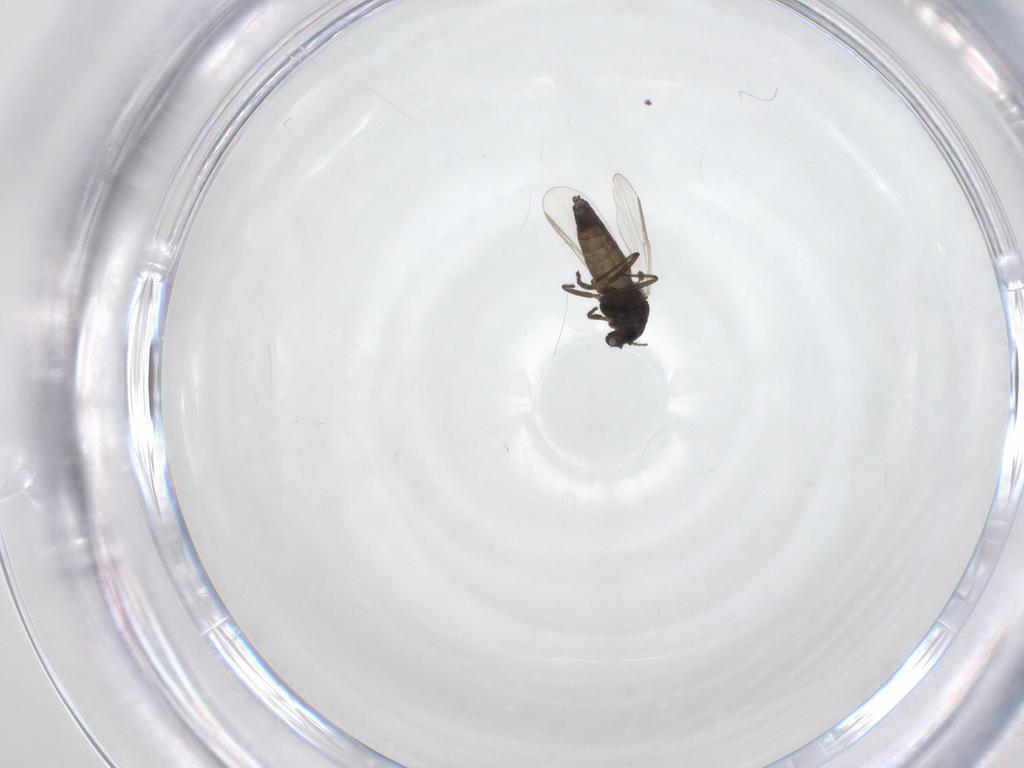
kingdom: Animalia
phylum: Arthropoda
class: Insecta
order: Diptera
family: Chironomidae
